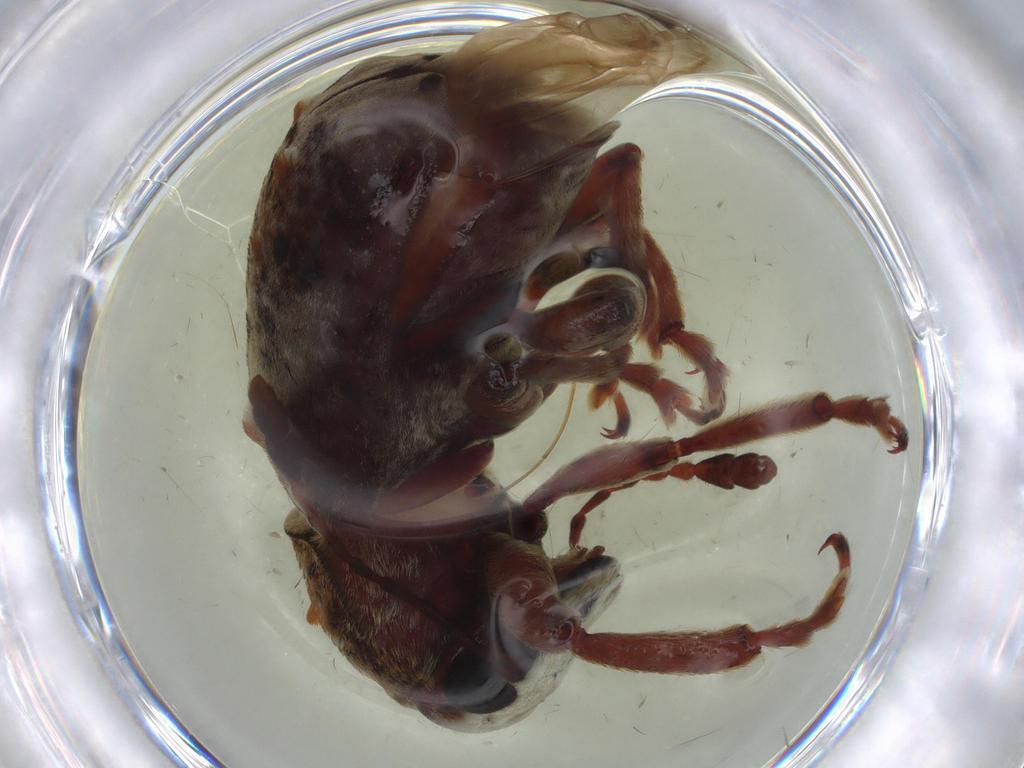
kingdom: Animalia
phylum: Arthropoda
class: Insecta
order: Coleoptera
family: Anthribidae
